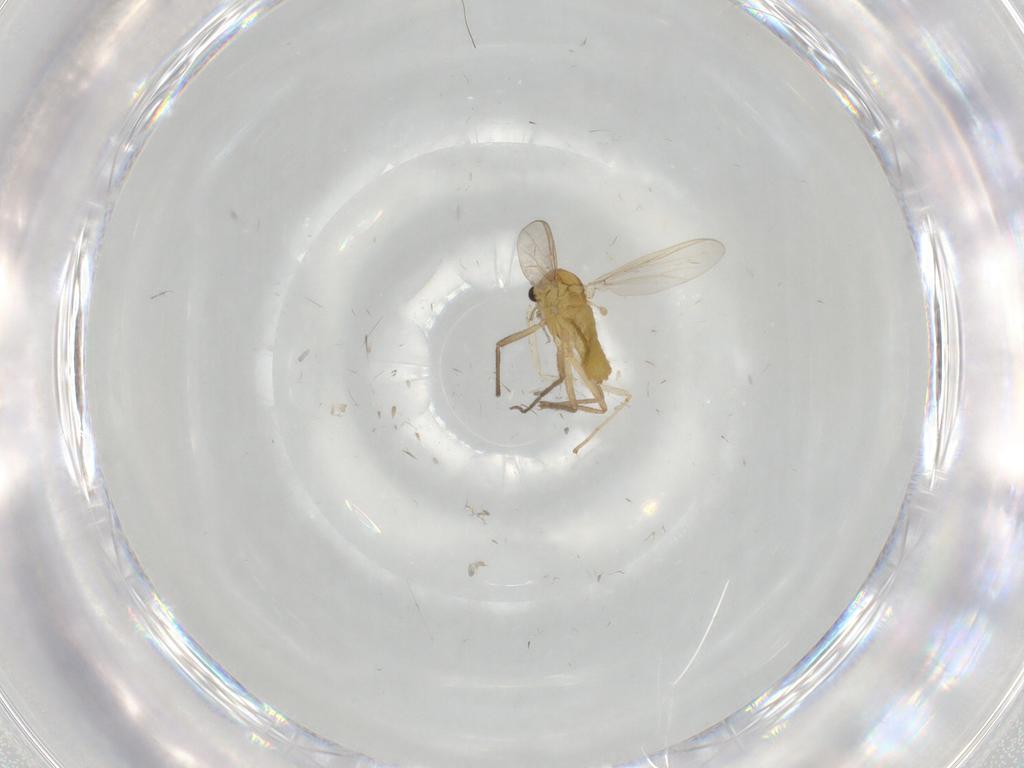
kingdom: Animalia
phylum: Arthropoda
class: Insecta
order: Diptera
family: Chironomidae
